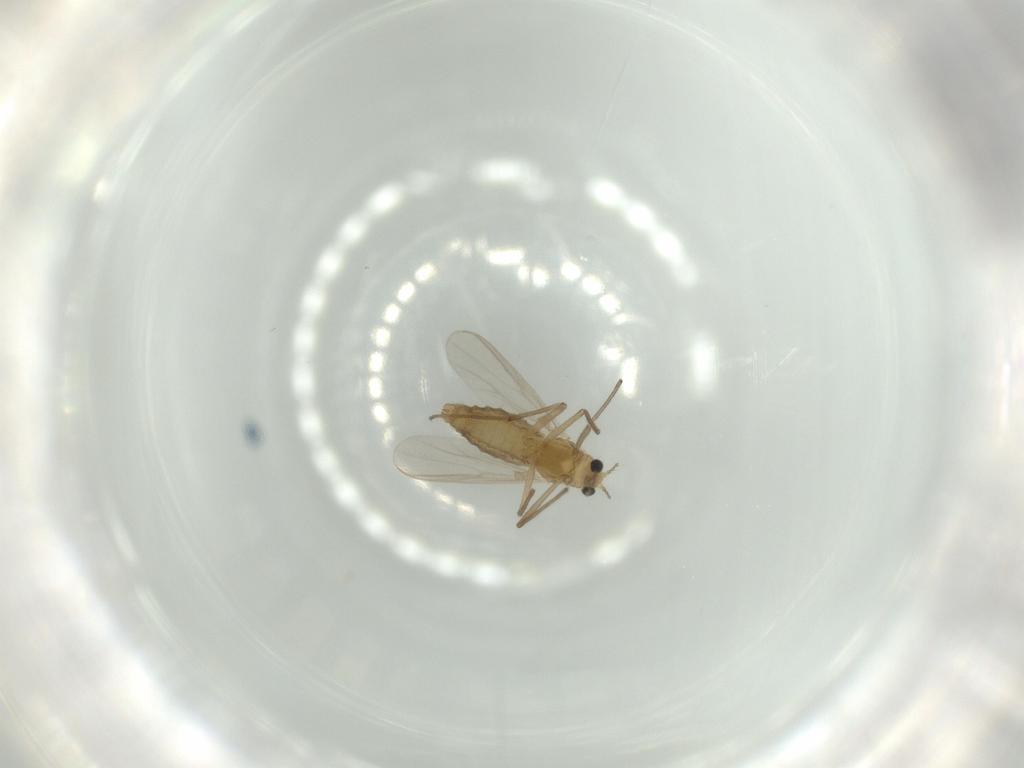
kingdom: Animalia
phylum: Arthropoda
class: Insecta
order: Diptera
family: Chironomidae
